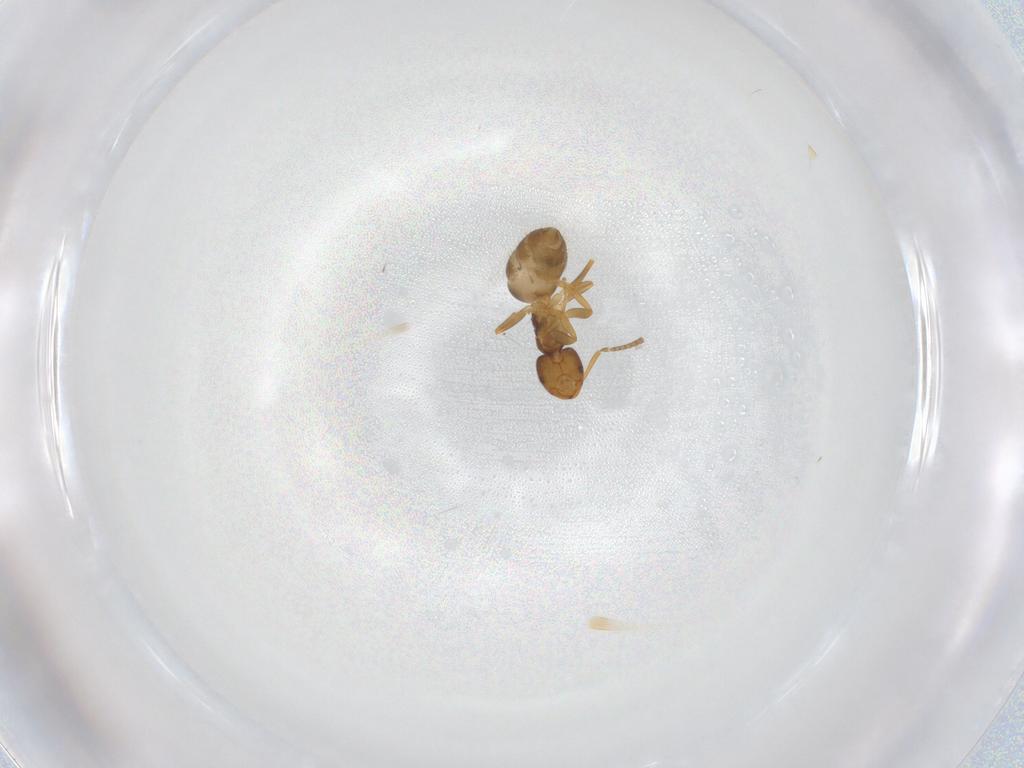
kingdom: Animalia
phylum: Arthropoda
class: Insecta
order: Hymenoptera
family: Formicidae
